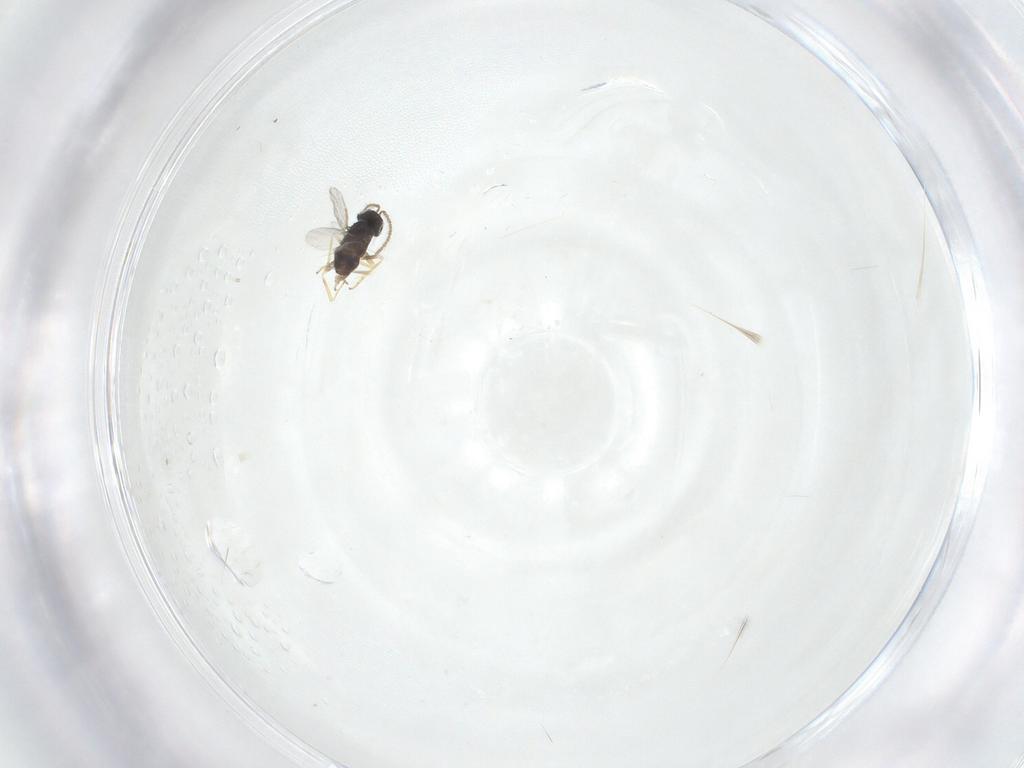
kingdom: Animalia
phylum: Arthropoda
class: Insecta
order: Hymenoptera
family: Encyrtidae
